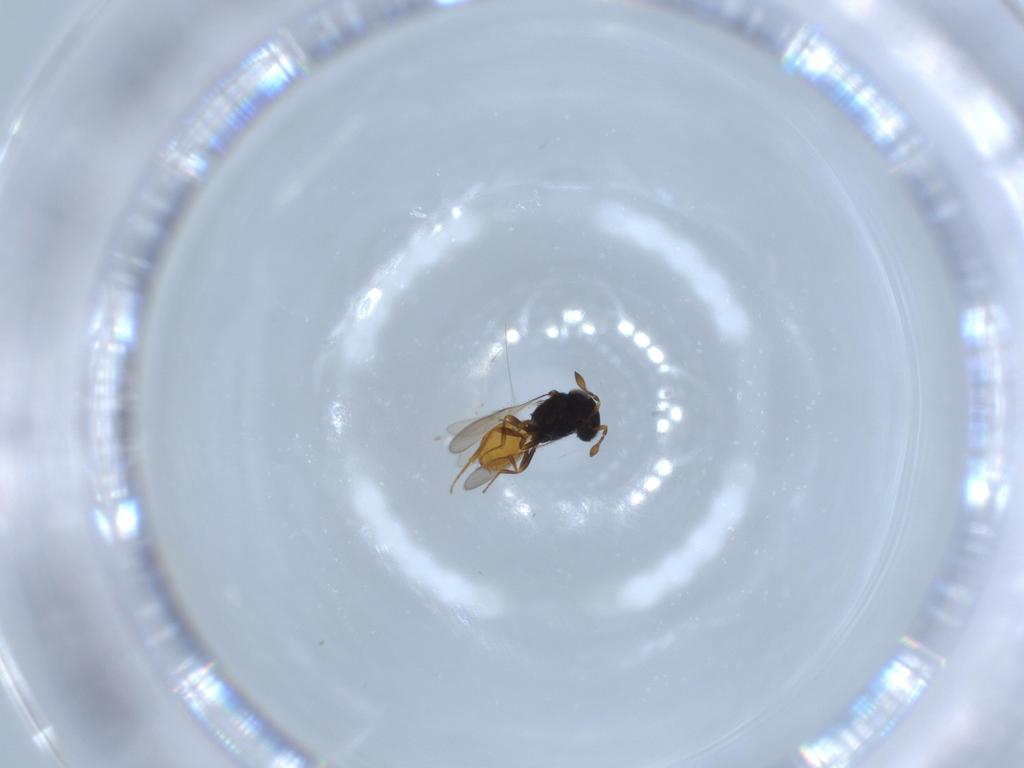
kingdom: Animalia
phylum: Arthropoda
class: Insecta
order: Hymenoptera
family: Scelionidae
